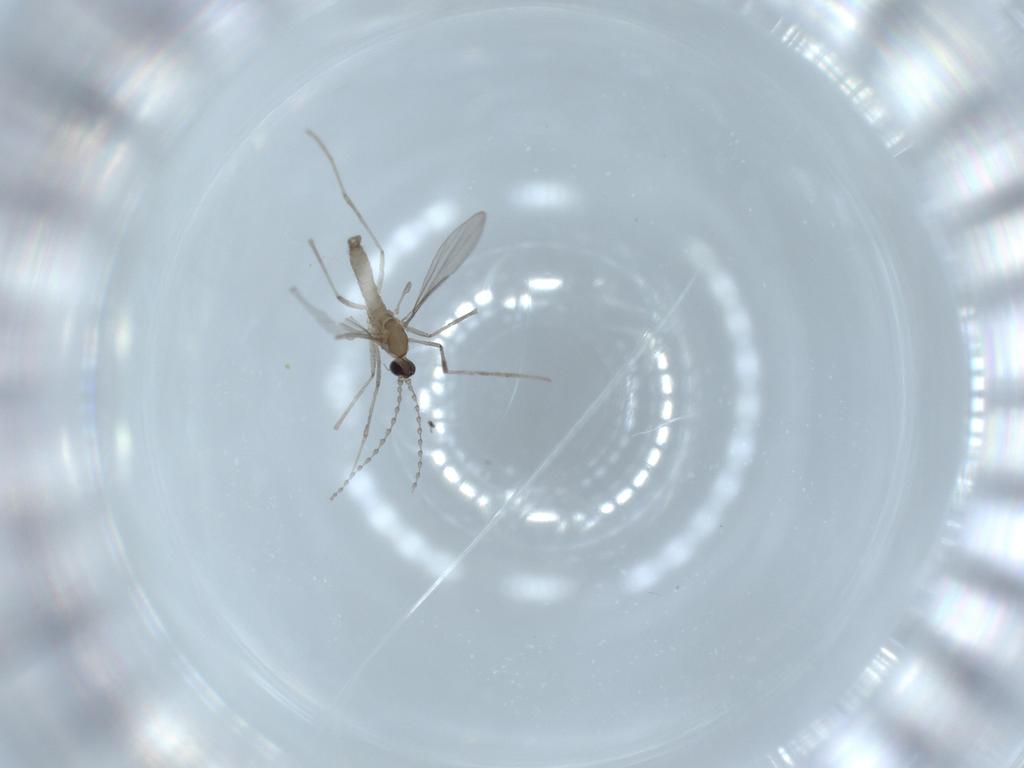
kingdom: Animalia
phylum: Arthropoda
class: Insecta
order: Diptera
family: Cecidomyiidae
